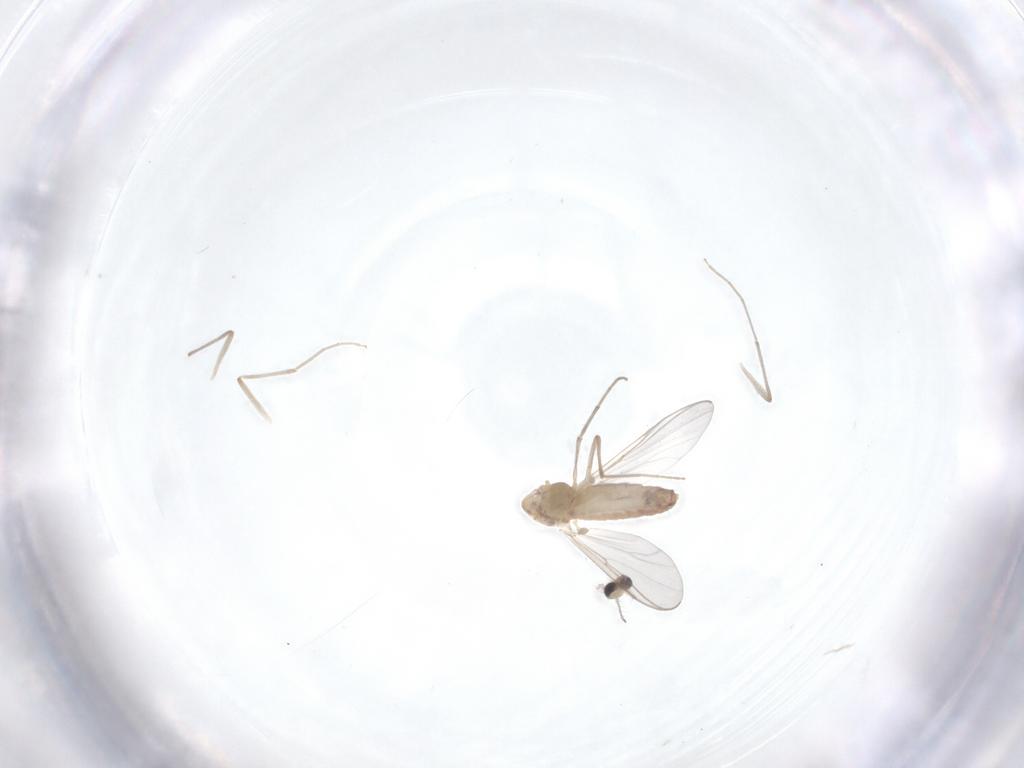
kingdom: Animalia
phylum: Arthropoda
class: Insecta
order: Diptera
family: Chironomidae
